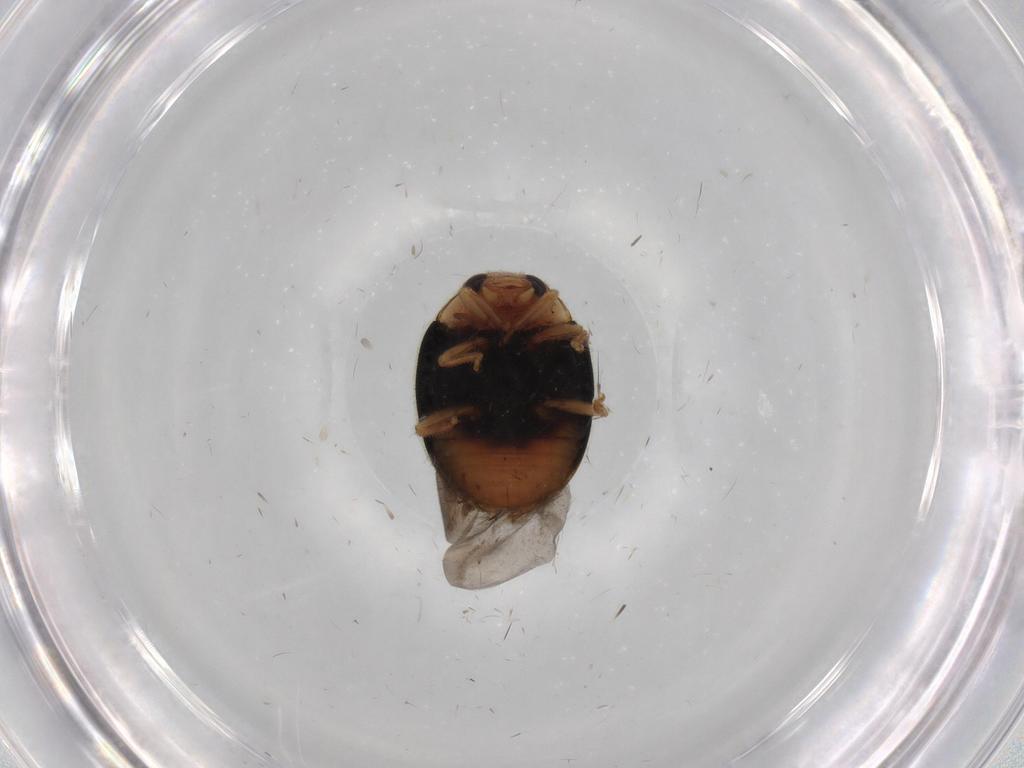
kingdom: Animalia
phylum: Arthropoda
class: Insecta
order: Coleoptera
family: Coccinellidae
